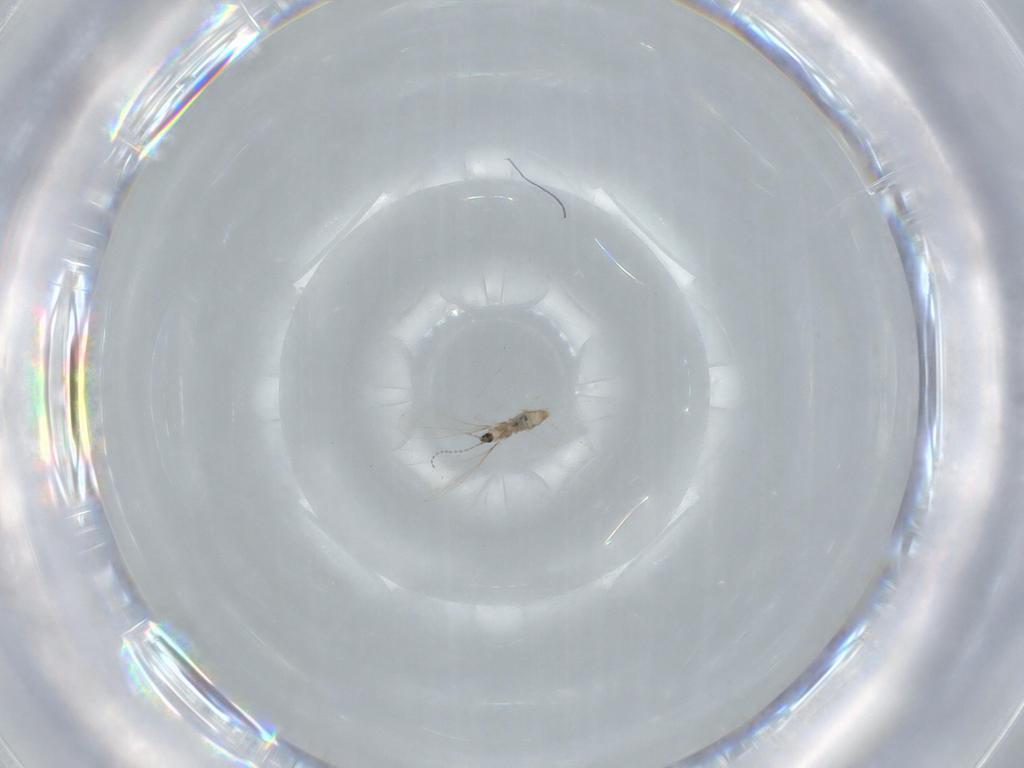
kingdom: Animalia
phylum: Arthropoda
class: Insecta
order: Diptera
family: Cecidomyiidae
